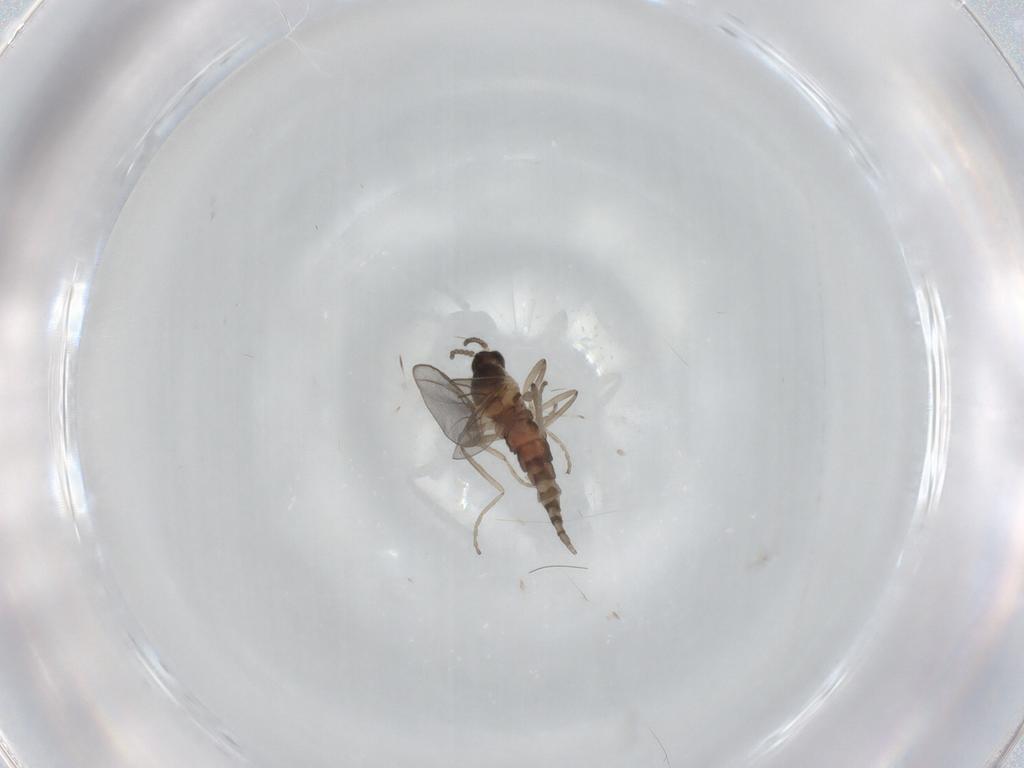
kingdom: Animalia
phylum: Arthropoda
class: Insecta
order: Diptera
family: Cecidomyiidae
